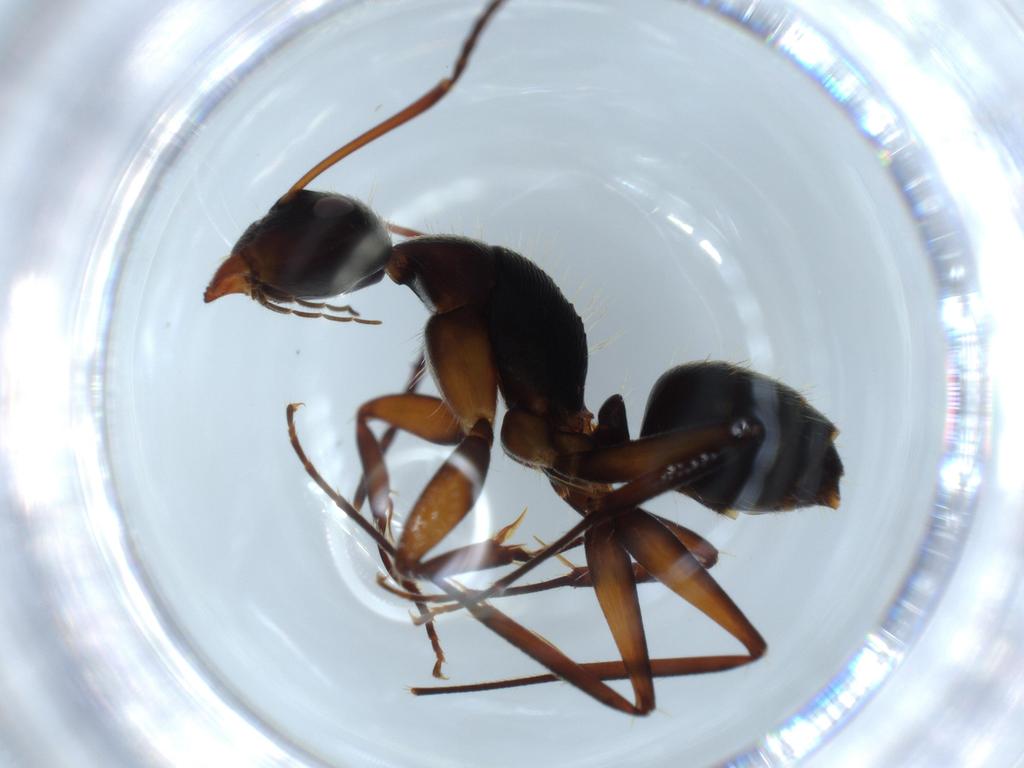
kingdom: Animalia
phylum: Arthropoda
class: Insecta
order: Hymenoptera
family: Formicidae
